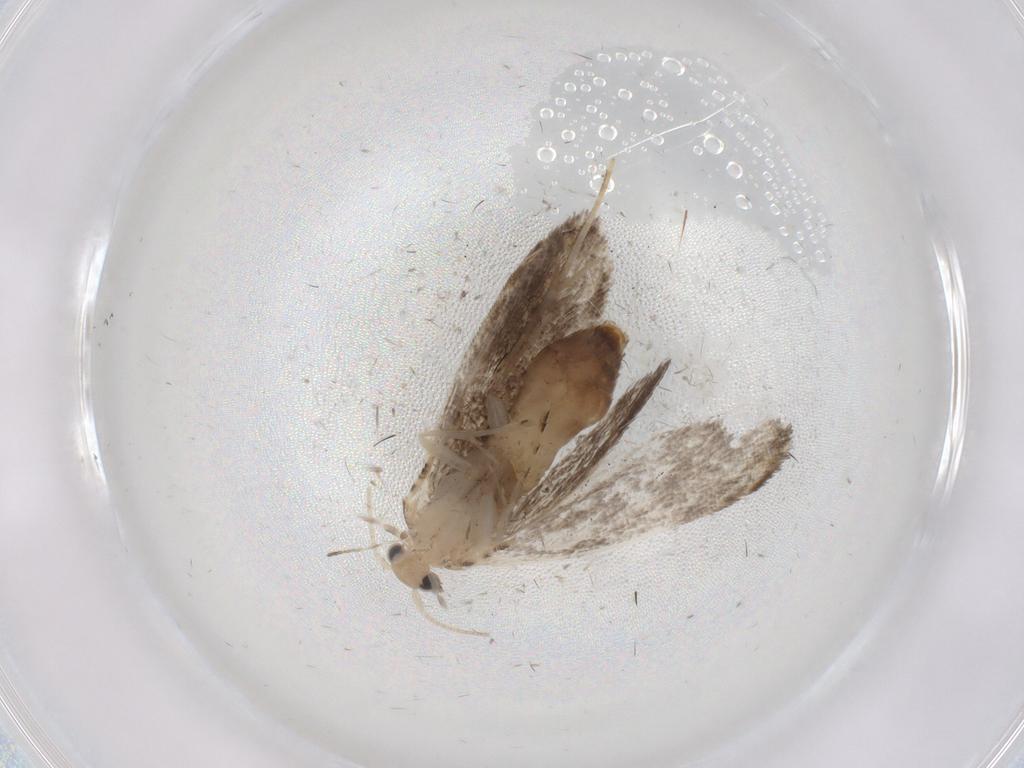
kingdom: Animalia
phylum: Arthropoda
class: Insecta
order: Lepidoptera
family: Tineidae
